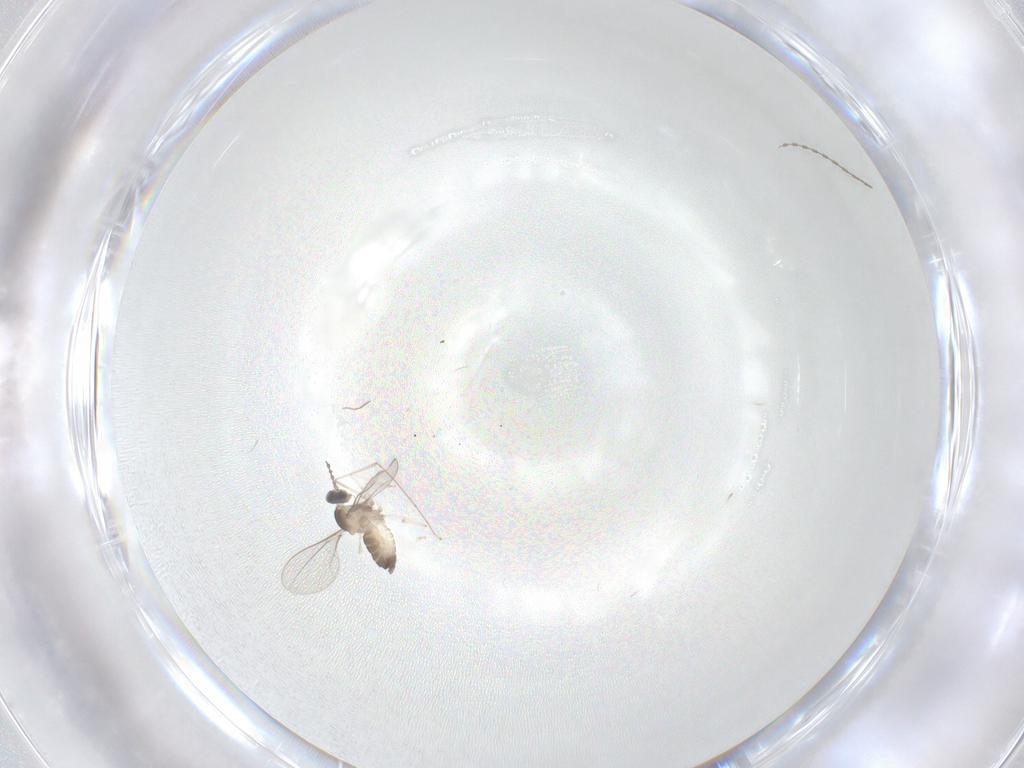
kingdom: Animalia
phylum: Arthropoda
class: Insecta
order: Diptera
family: Cecidomyiidae
